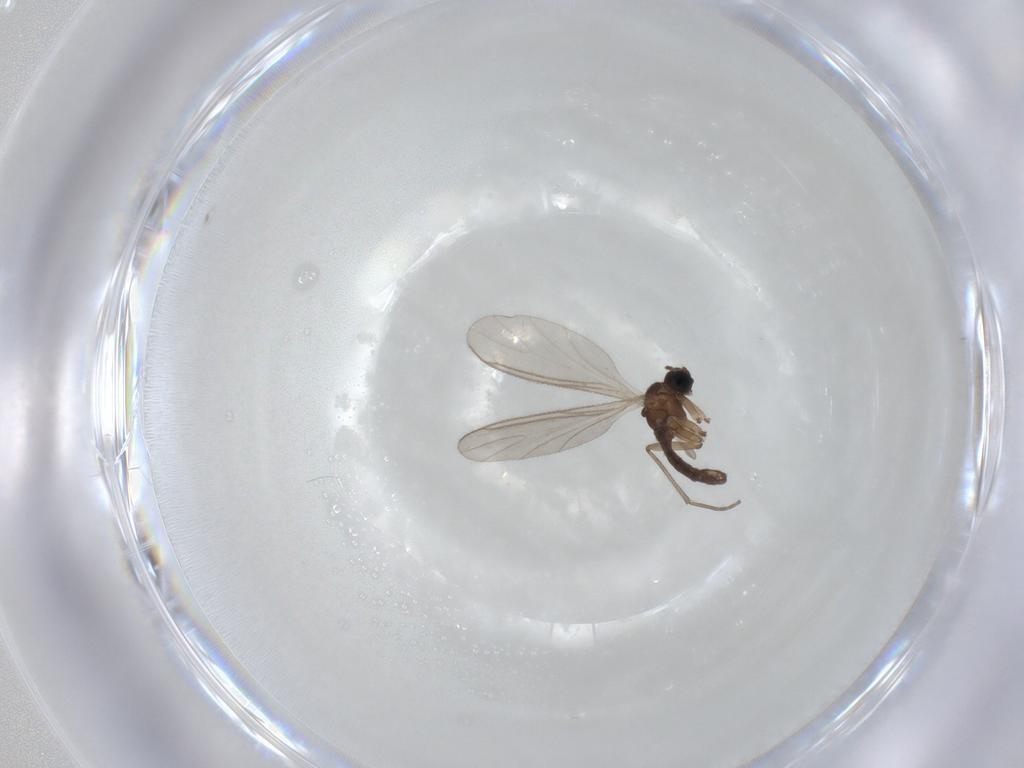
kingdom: Animalia
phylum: Arthropoda
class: Insecta
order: Diptera
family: Sciaridae
